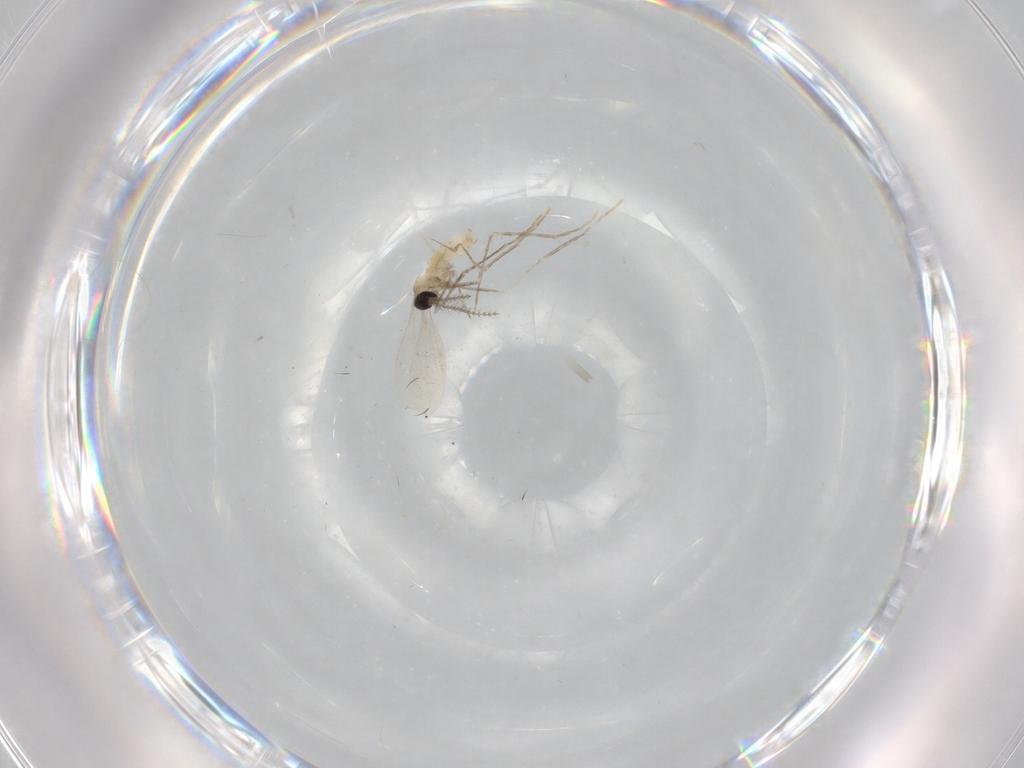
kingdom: Animalia
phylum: Arthropoda
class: Insecta
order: Diptera
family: Cecidomyiidae
